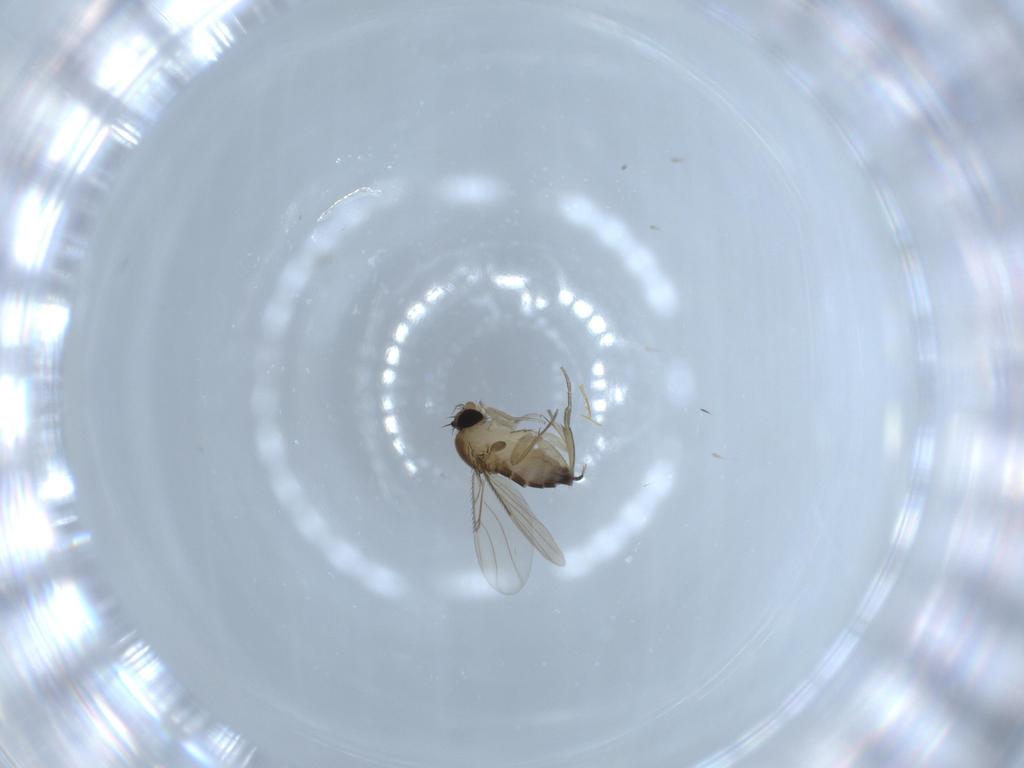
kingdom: Animalia
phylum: Arthropoda
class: Insecta
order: Diptera
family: Phoridae
